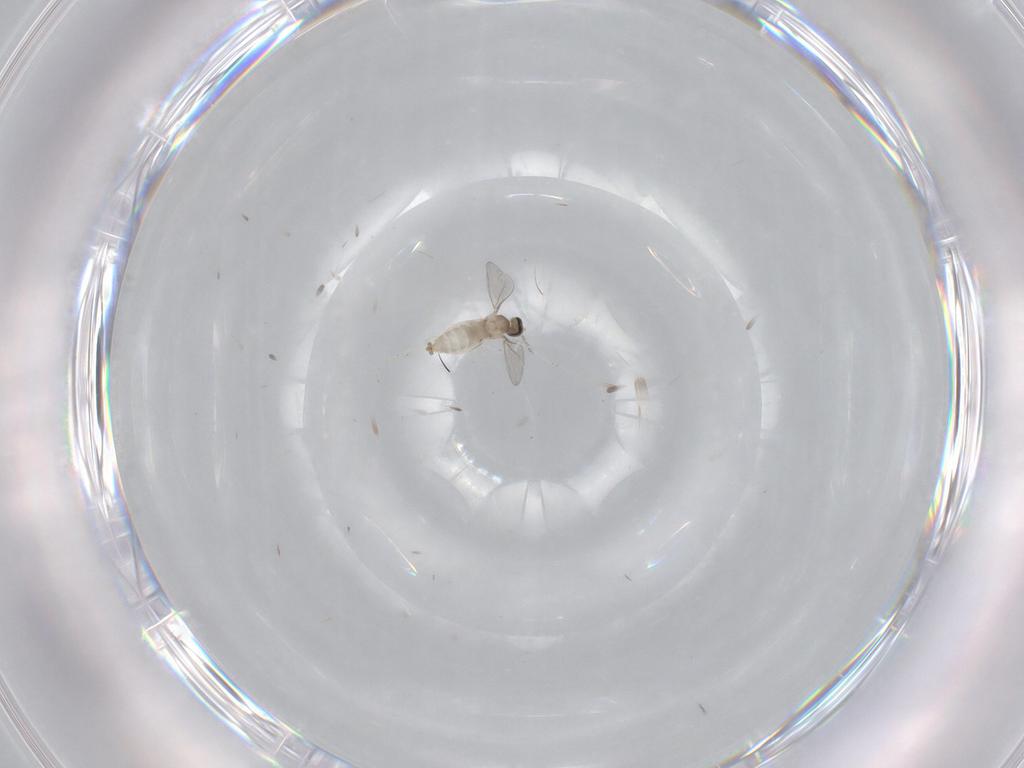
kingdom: Animalia
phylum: Arthropoda
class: Insecta
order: Diptera
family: Cecidomyiidae
